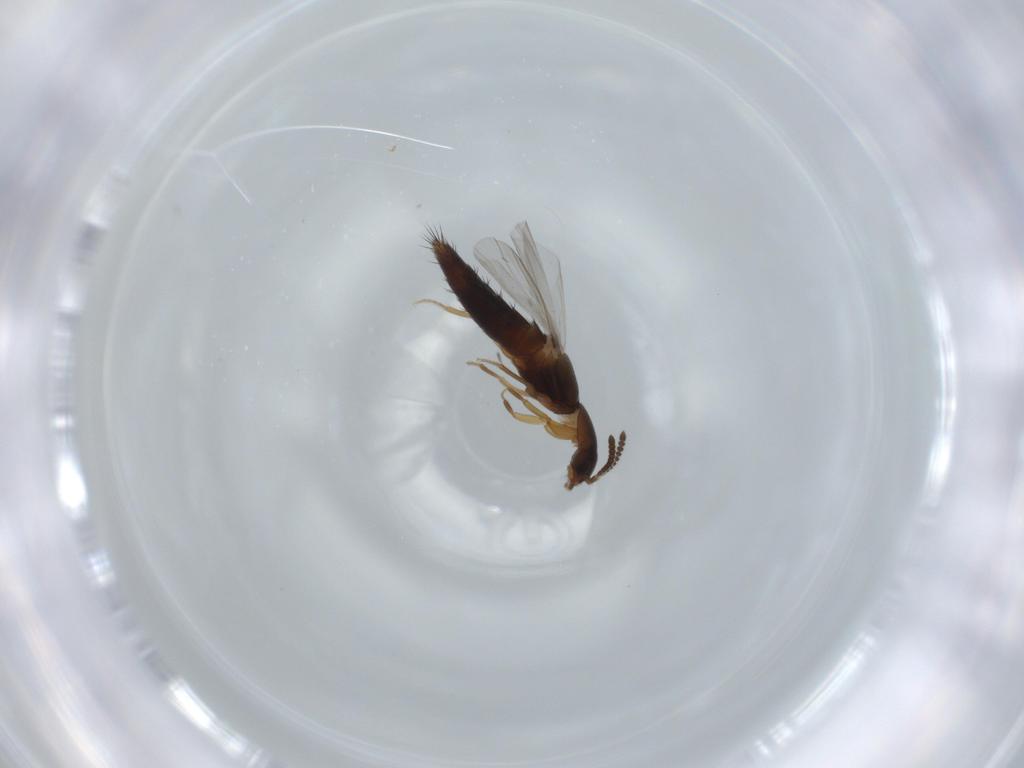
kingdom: Animalia
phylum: Arthropoda
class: Insecta
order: Coleoptera
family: Staphylinidae
